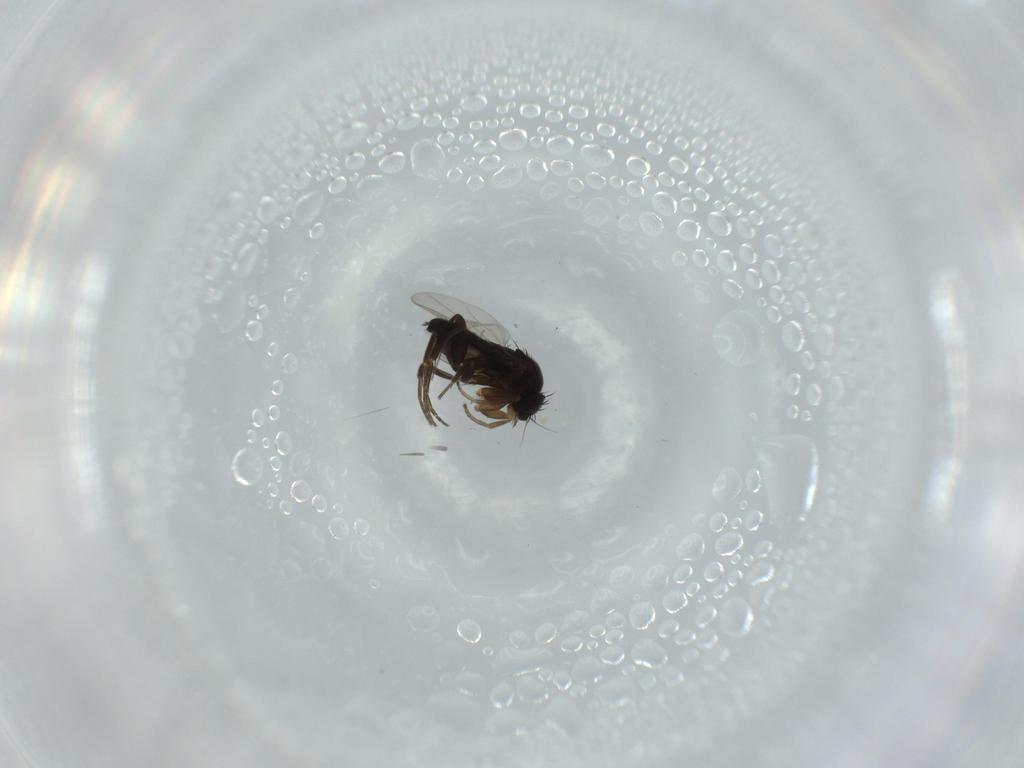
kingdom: Animalia
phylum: Arthropoda
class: Insecta
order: Diptera
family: Phoridae
